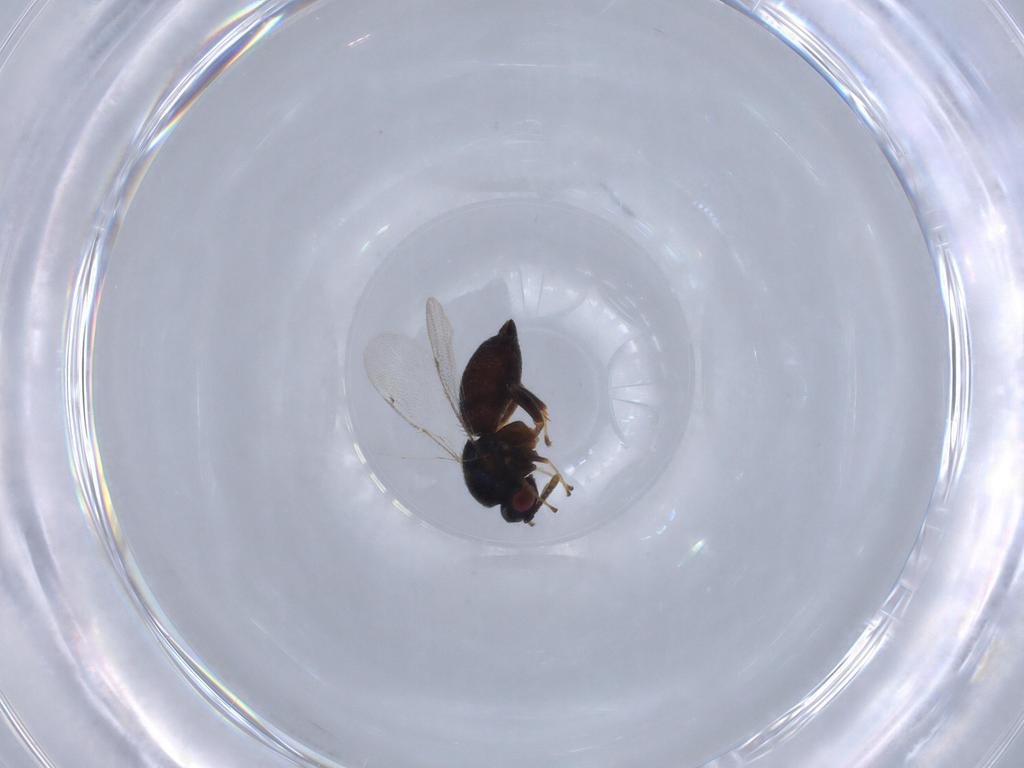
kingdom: Animalia
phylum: Arthropoda
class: Insecta
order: Hymenoptera
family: Ormyridae
